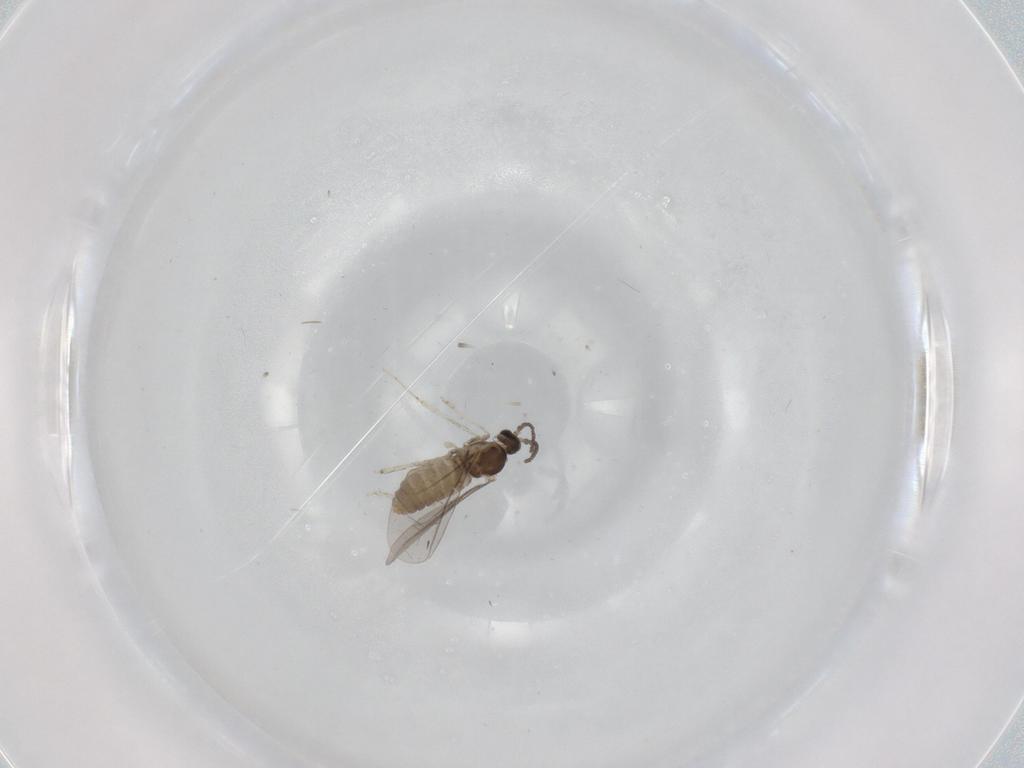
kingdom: Animalia
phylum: Arthropoda
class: Insecta
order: Diptera
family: Cecidomyiidae
